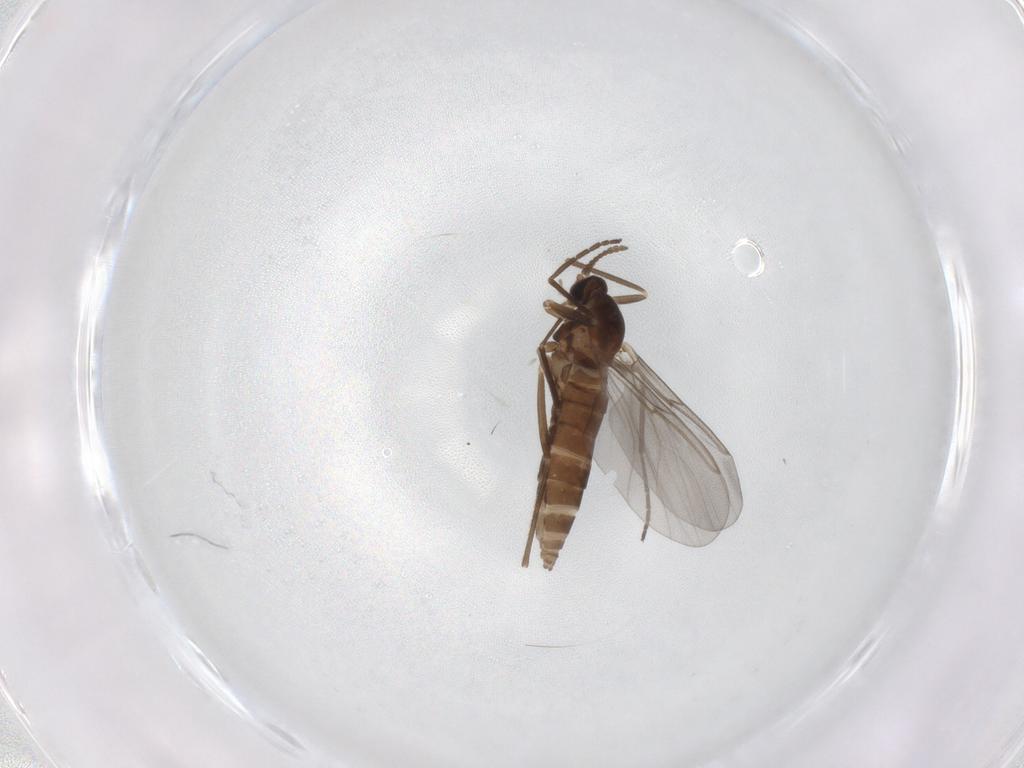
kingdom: Animalia
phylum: Arthropoda
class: Insecta
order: Diptera
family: Cecidomyiidae
